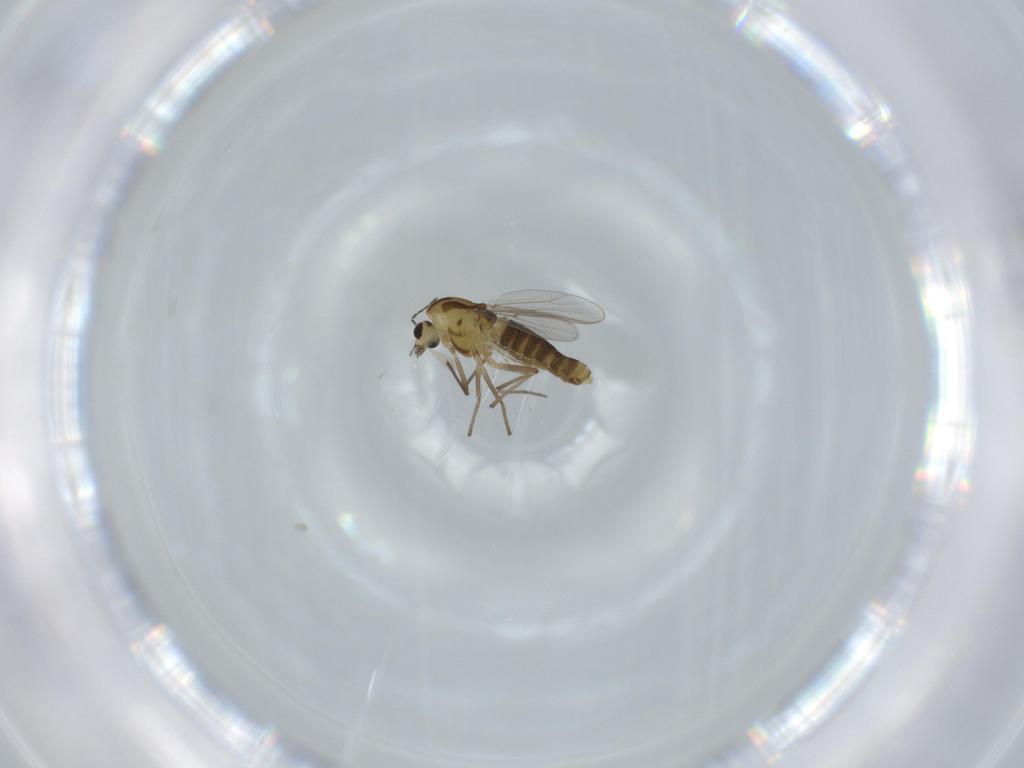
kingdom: Animalia
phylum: Arthropoda
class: Insecta
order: Diptera
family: Chironomidae
